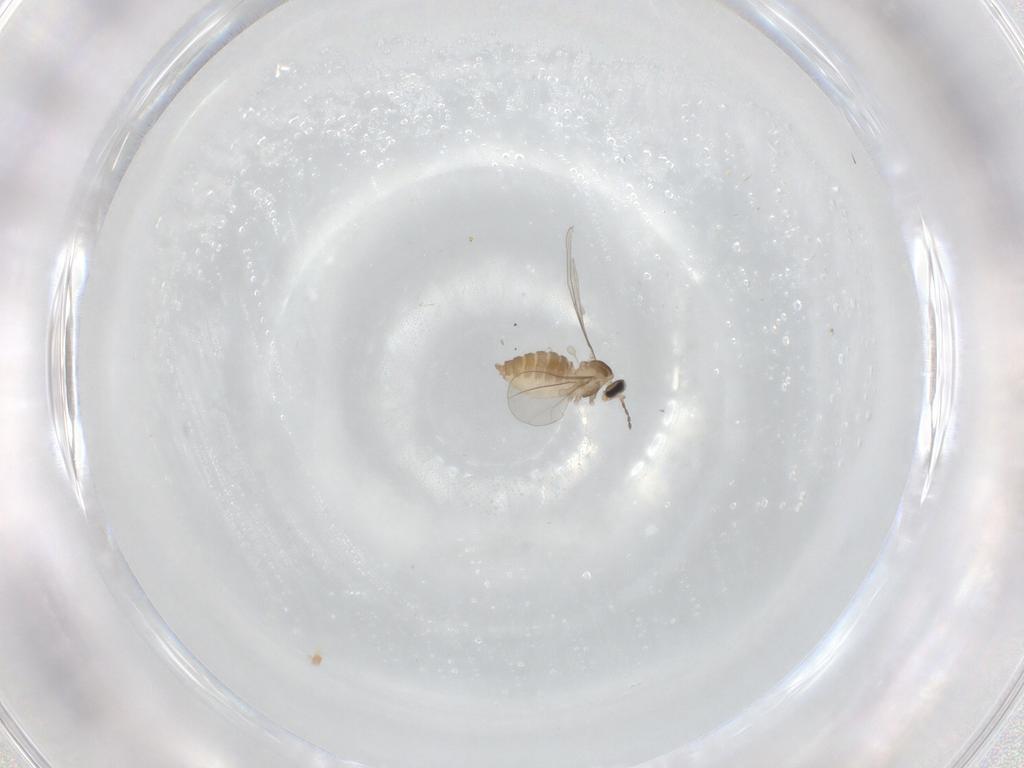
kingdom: Animalia
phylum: Arthropoda
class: Insecta
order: Diptera
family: Cecidomyiidae
